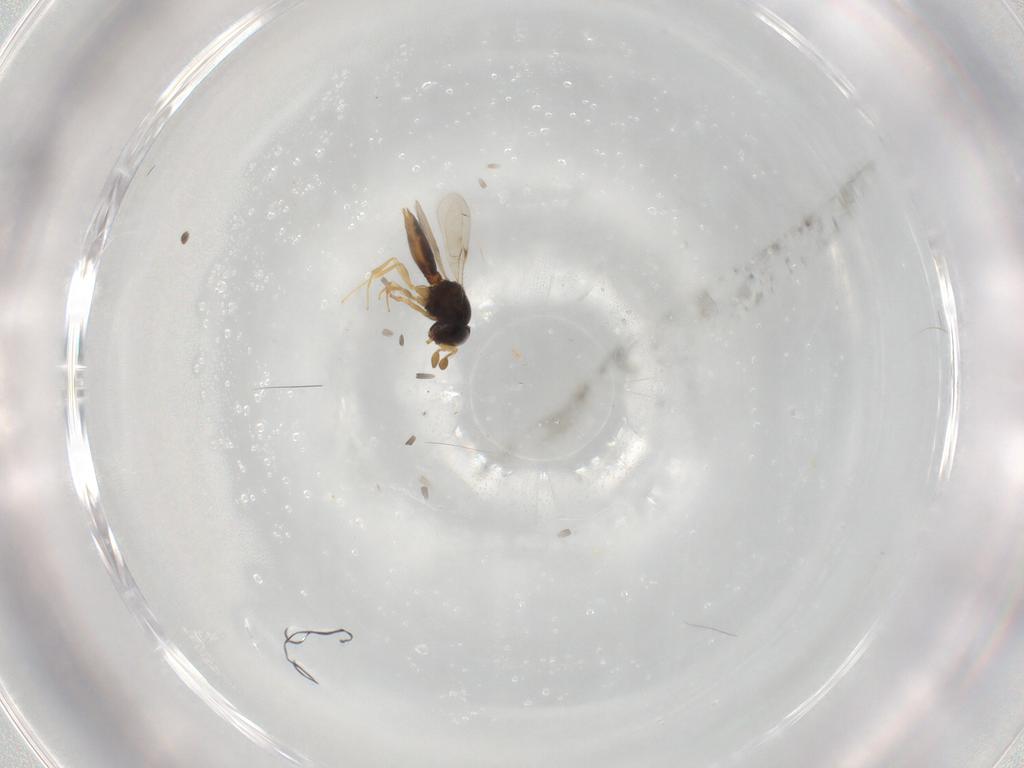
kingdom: Animalia
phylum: Arthropoda
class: Insecta
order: Hymenoptera
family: Scelionidae
